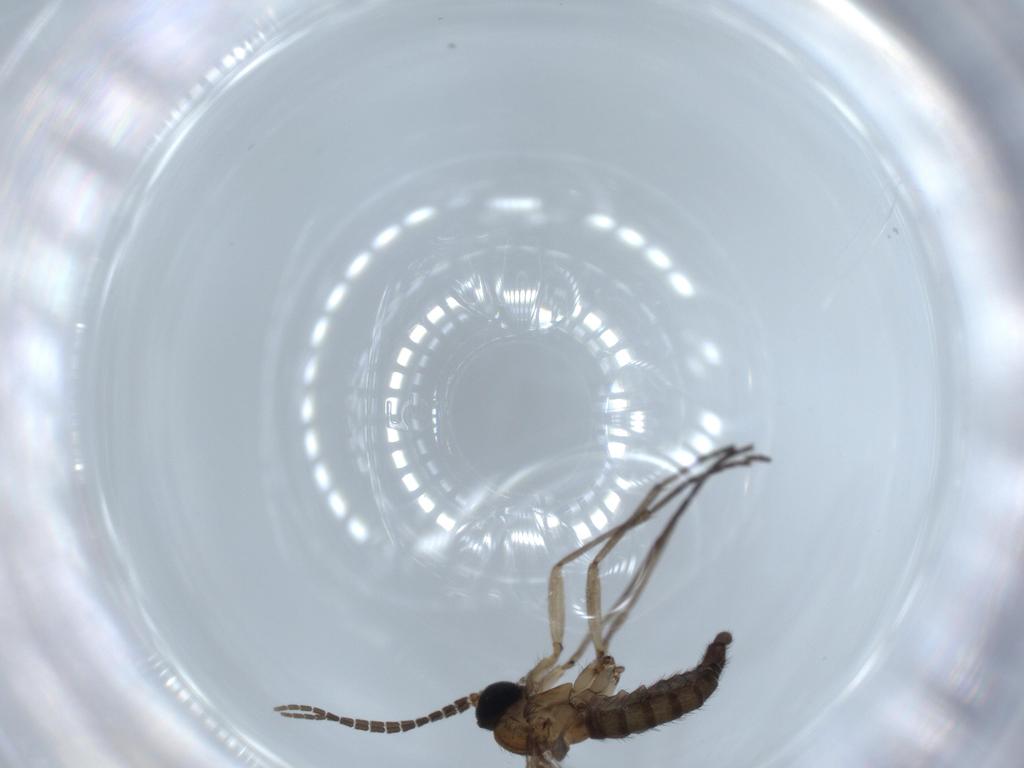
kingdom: Animalia
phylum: Arthropoda
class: Insecta
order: Diptera
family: Sciaridae
